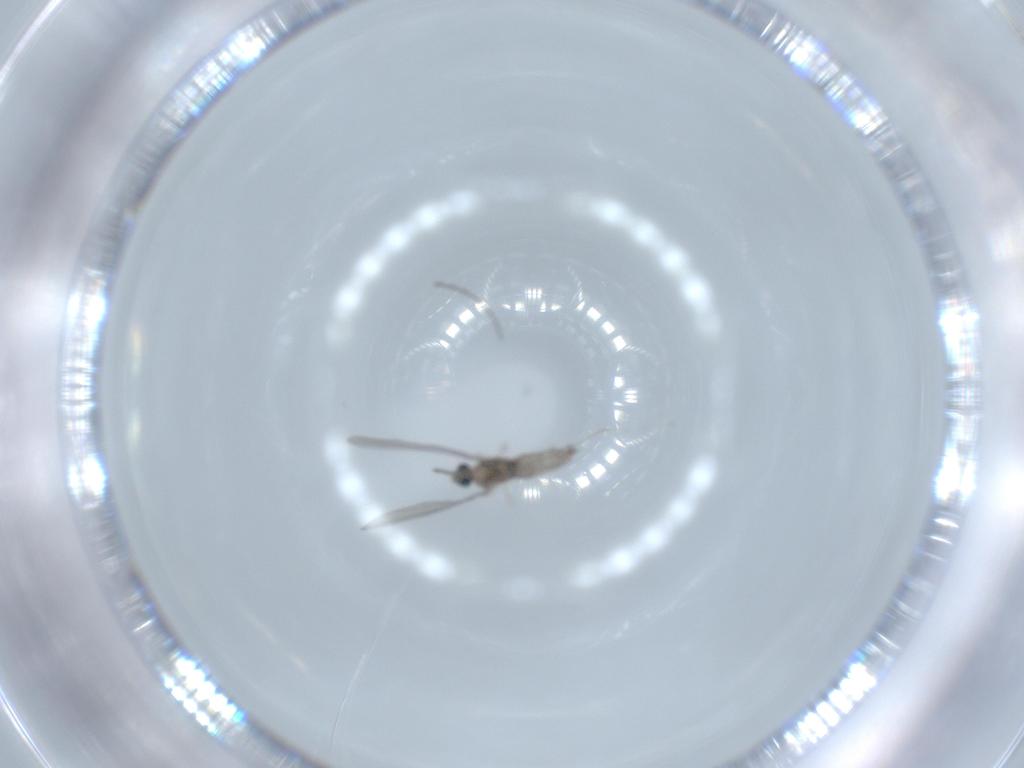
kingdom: Animalia
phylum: Arthropoda
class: Insecta
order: Diptera
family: Cecidomyiidae
